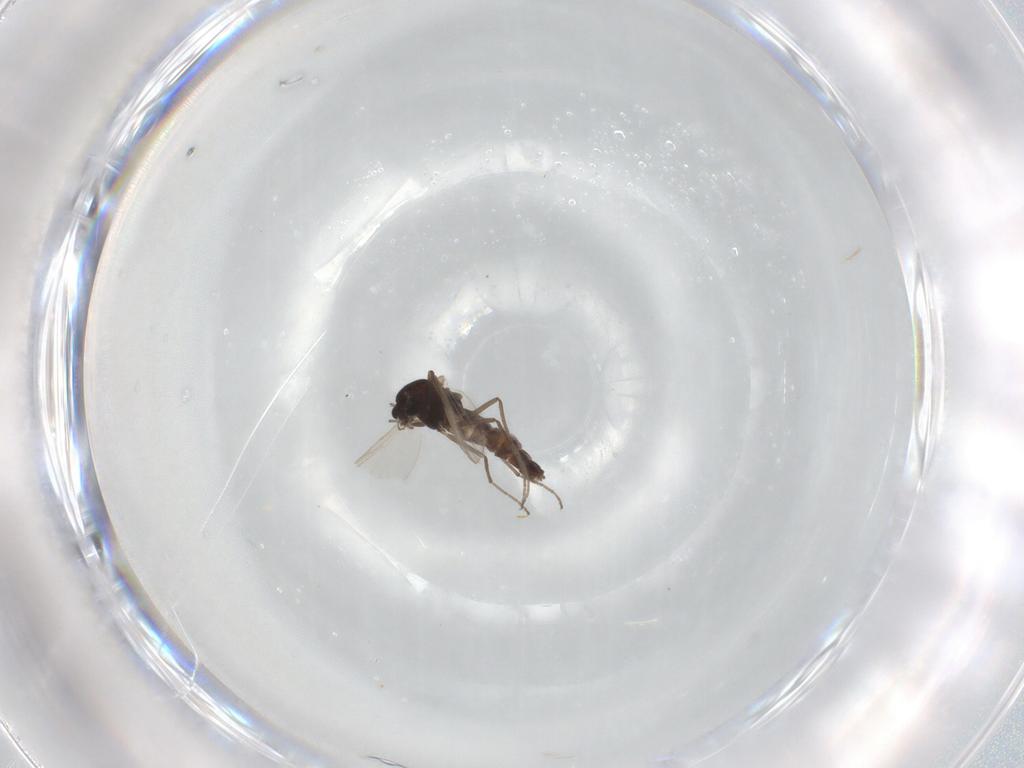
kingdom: Animalia
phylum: Arthropoda
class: Insecta
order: Diptera
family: Chironomidae
